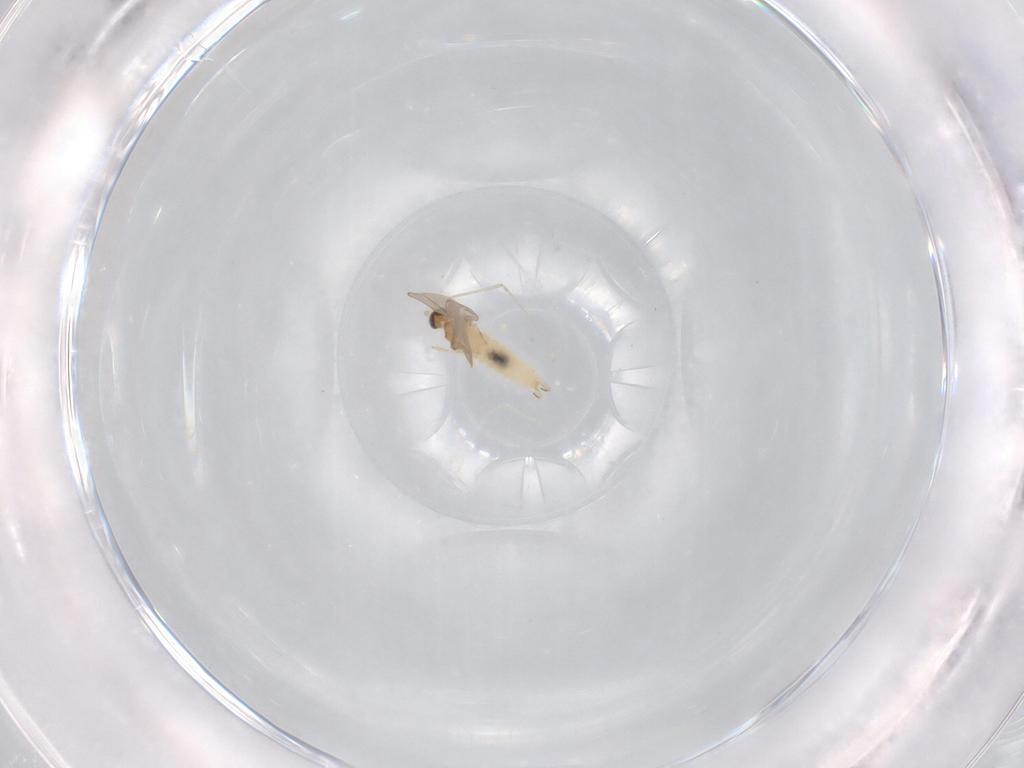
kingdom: Animalia
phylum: Arthropoda
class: Insecta
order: Diptera
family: Cecidomyiidae
